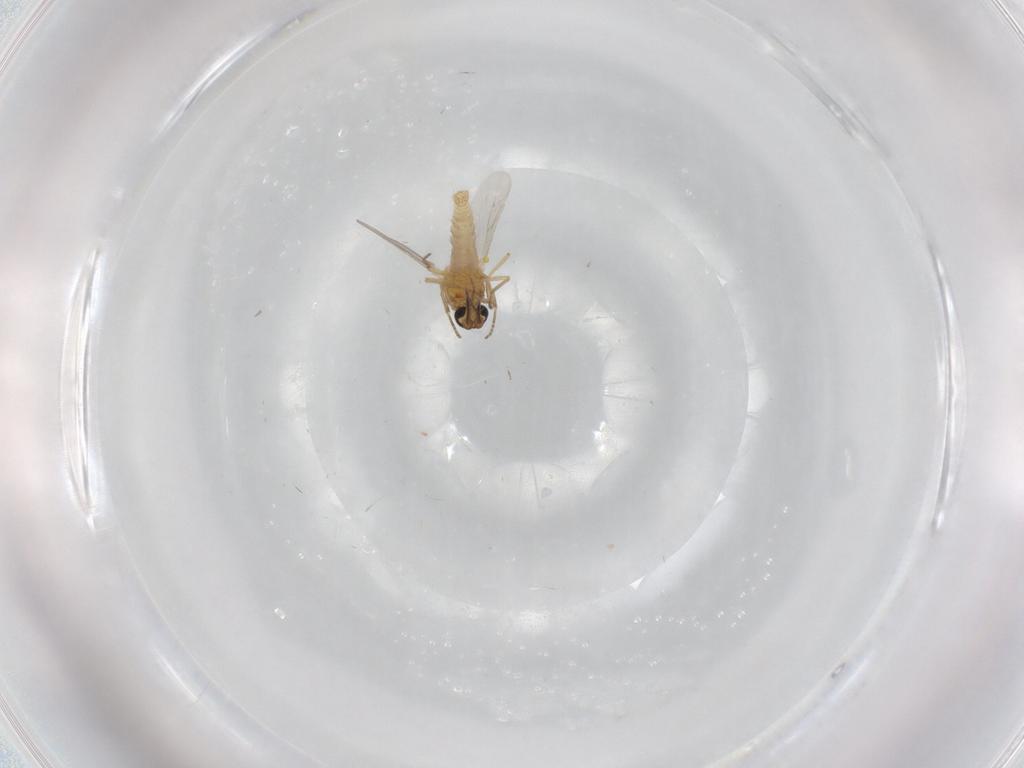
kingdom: Animalia
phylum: Arthropoda
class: Insecta
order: Diptera
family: Ceratopogonidae
